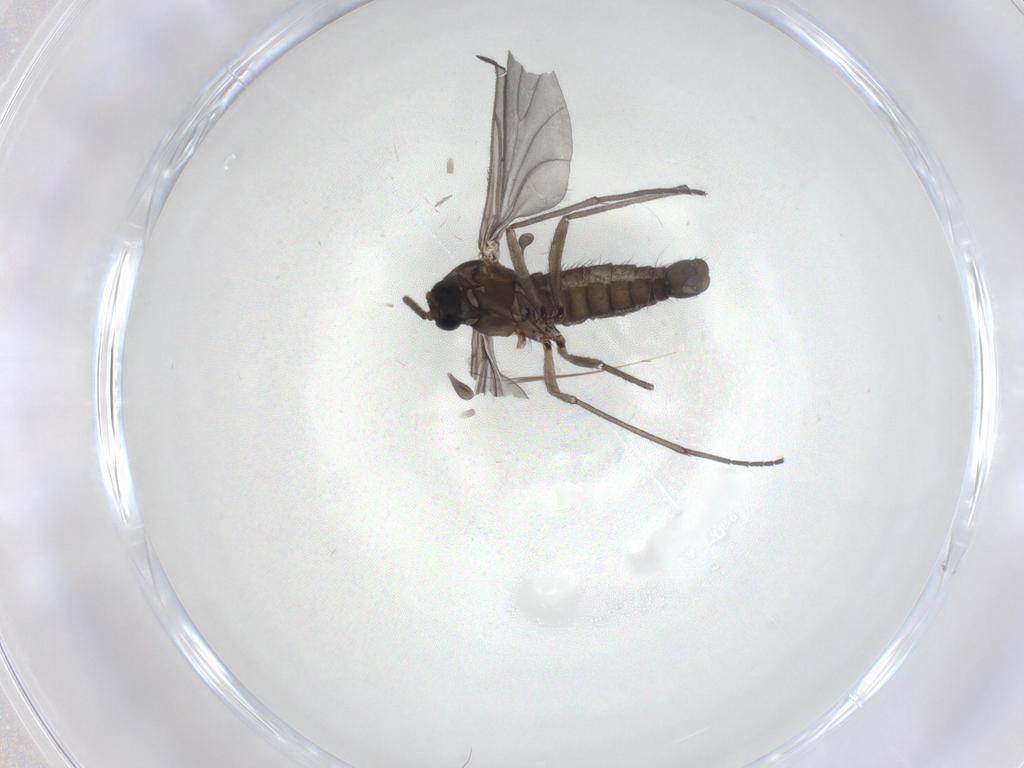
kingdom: Animalia
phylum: Arthropoda
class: Insecta
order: Diptera
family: Sciaridae
